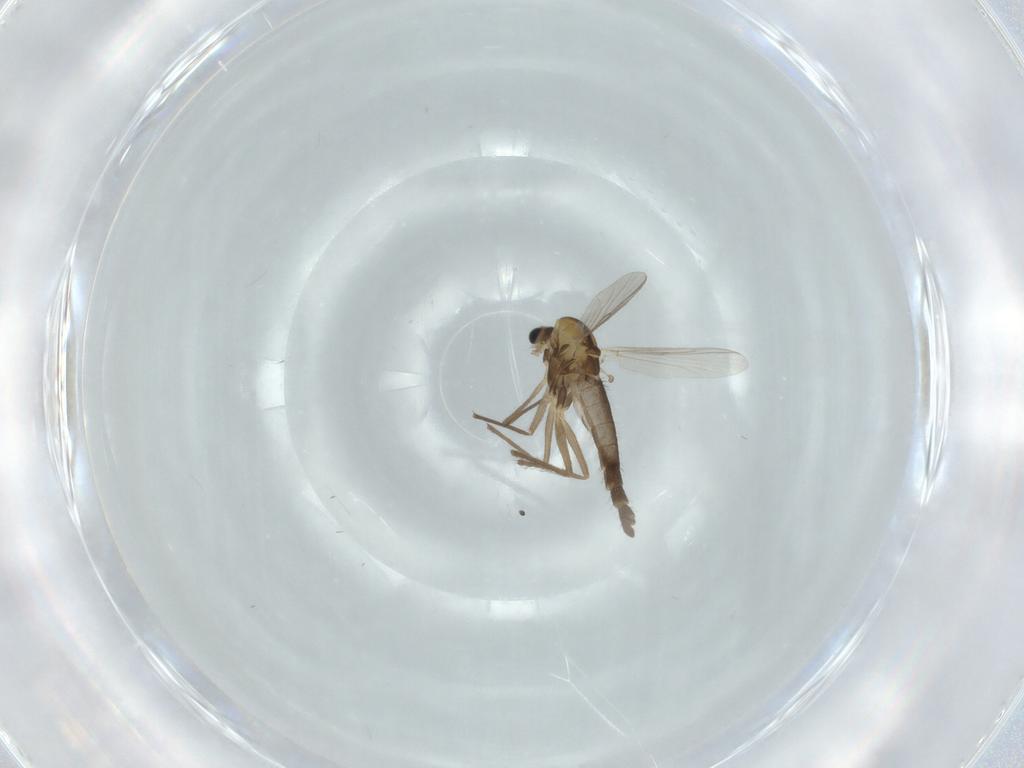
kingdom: Animalia
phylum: Arthropoda
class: Insecta
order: Diptera
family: Chironomidae
